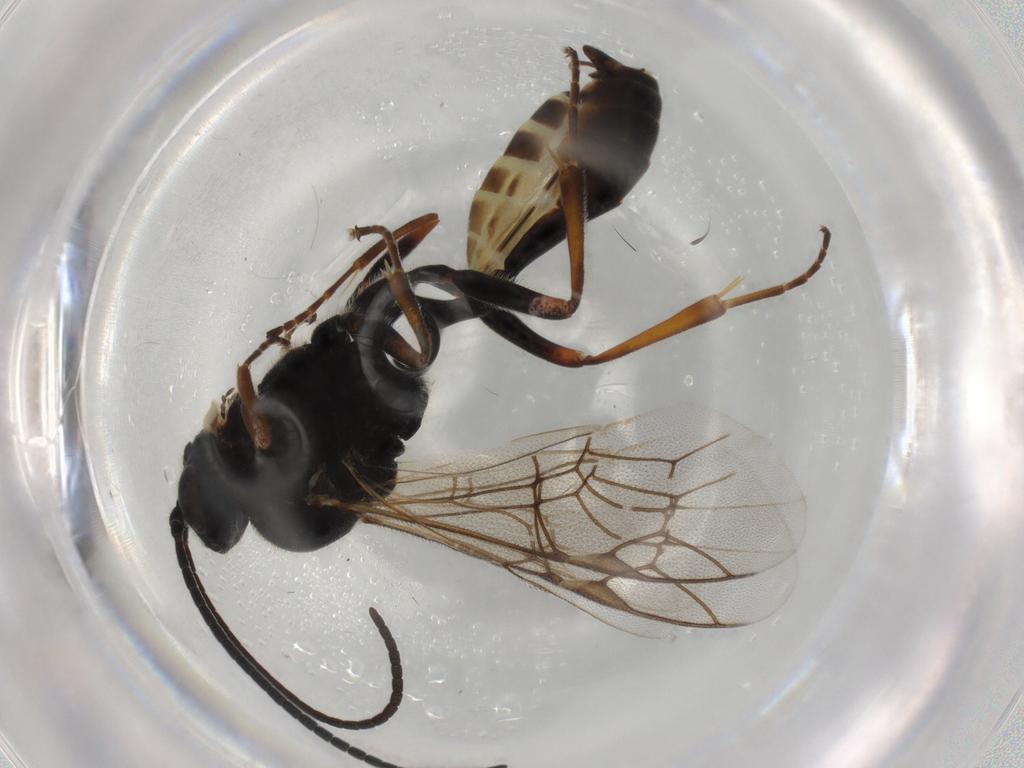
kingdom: Animalia
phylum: Arthropoda
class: Insecta
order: Hymenoptera
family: Ichneumonidae
